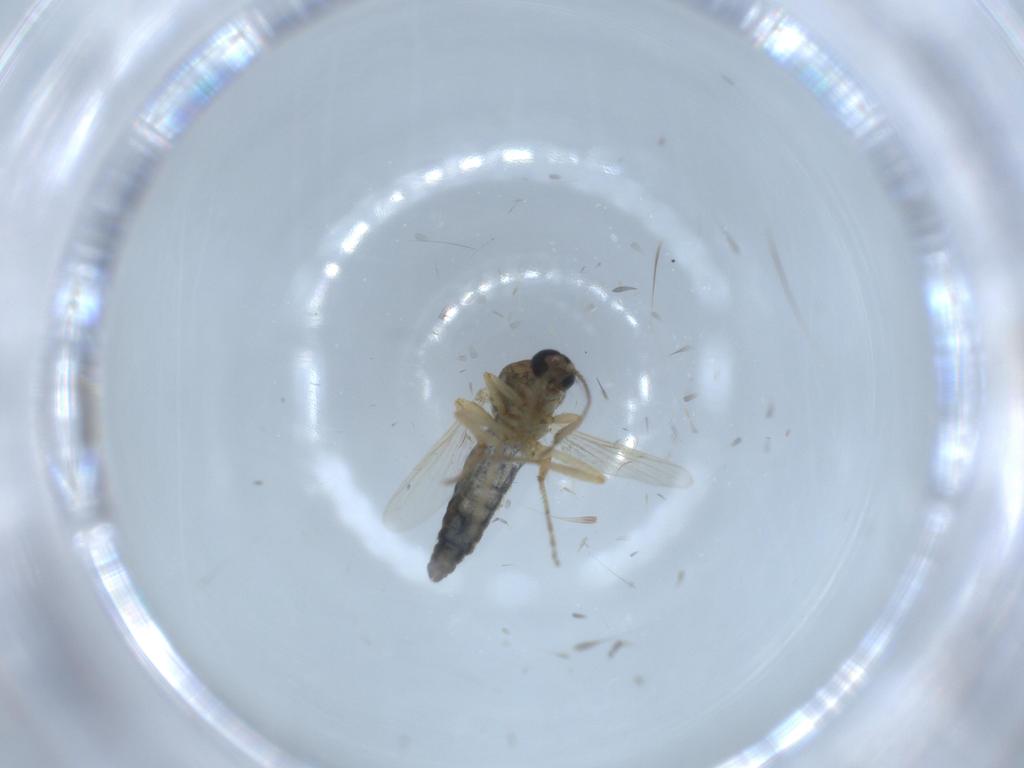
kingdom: Animalia
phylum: Arthropoda
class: Insecta
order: Diptera
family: Ceratopogonidae
